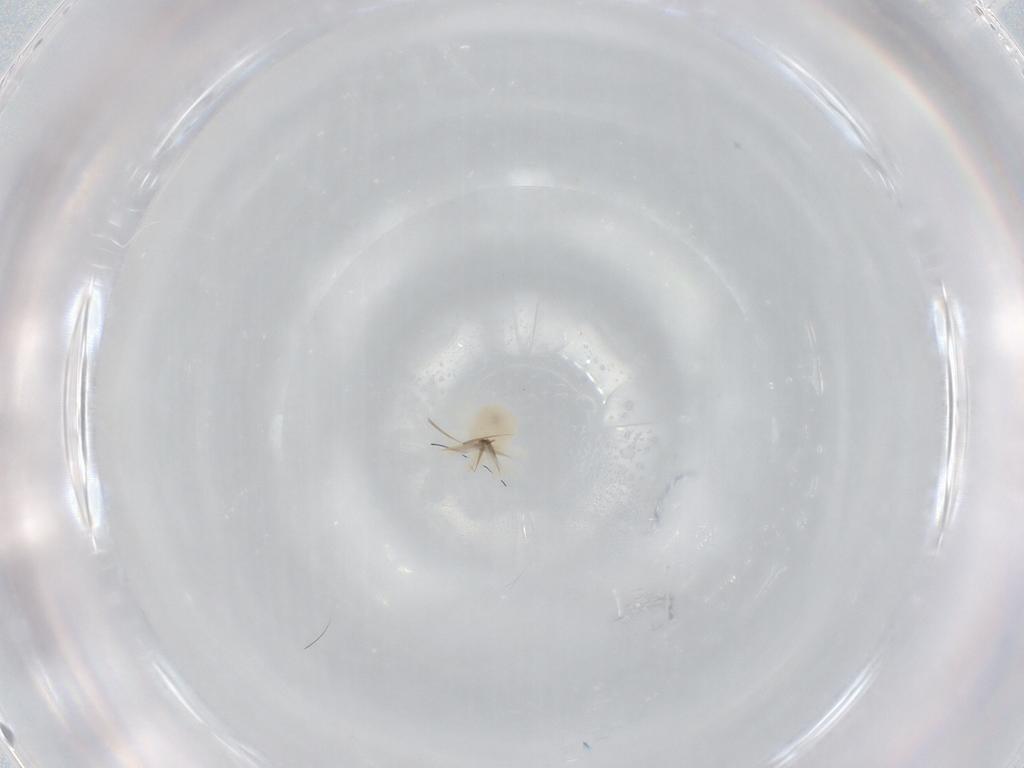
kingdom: Animalia
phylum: Arthropoda
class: Arachnida
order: Trombidiformes
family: Anystidae
